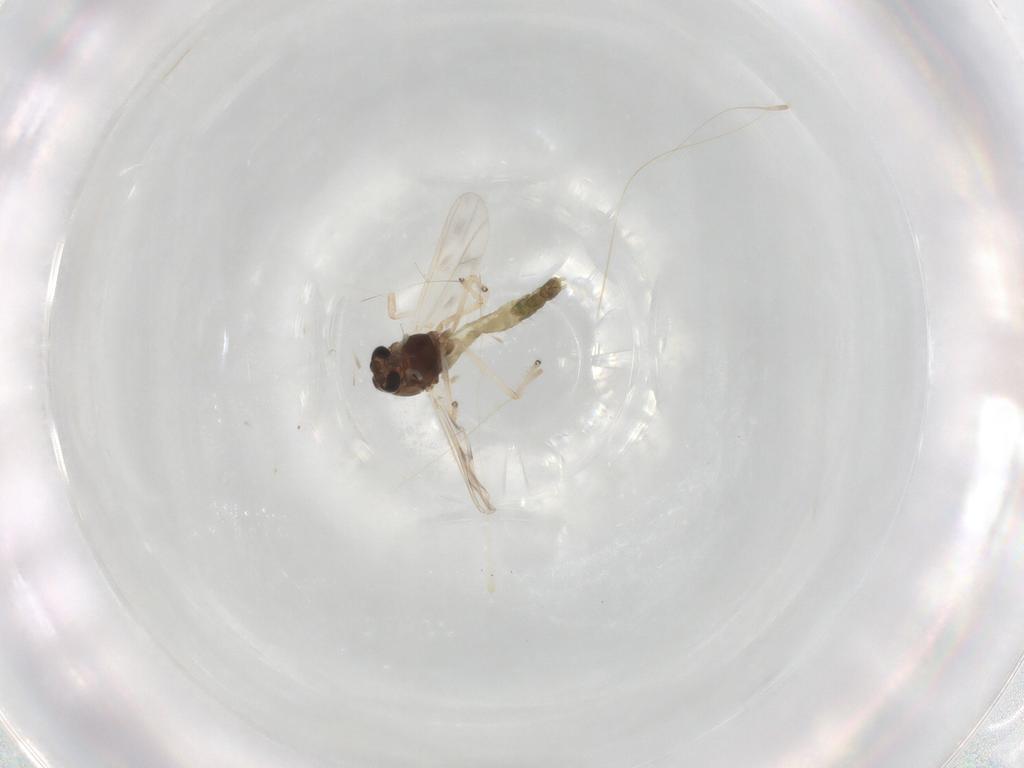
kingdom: Animalia
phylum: Arthropoda
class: Insecta
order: Diptera
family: Chironomidae
